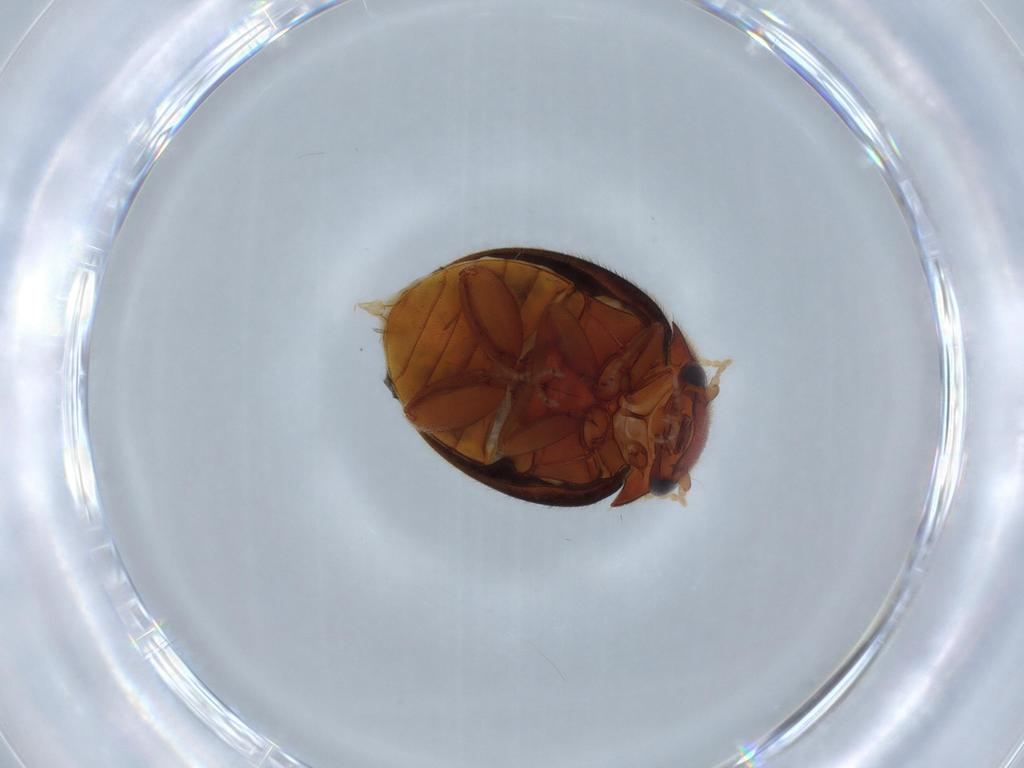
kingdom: Animalia
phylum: Arthropoda
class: Insecta
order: Coleoptera
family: Scirtidae
